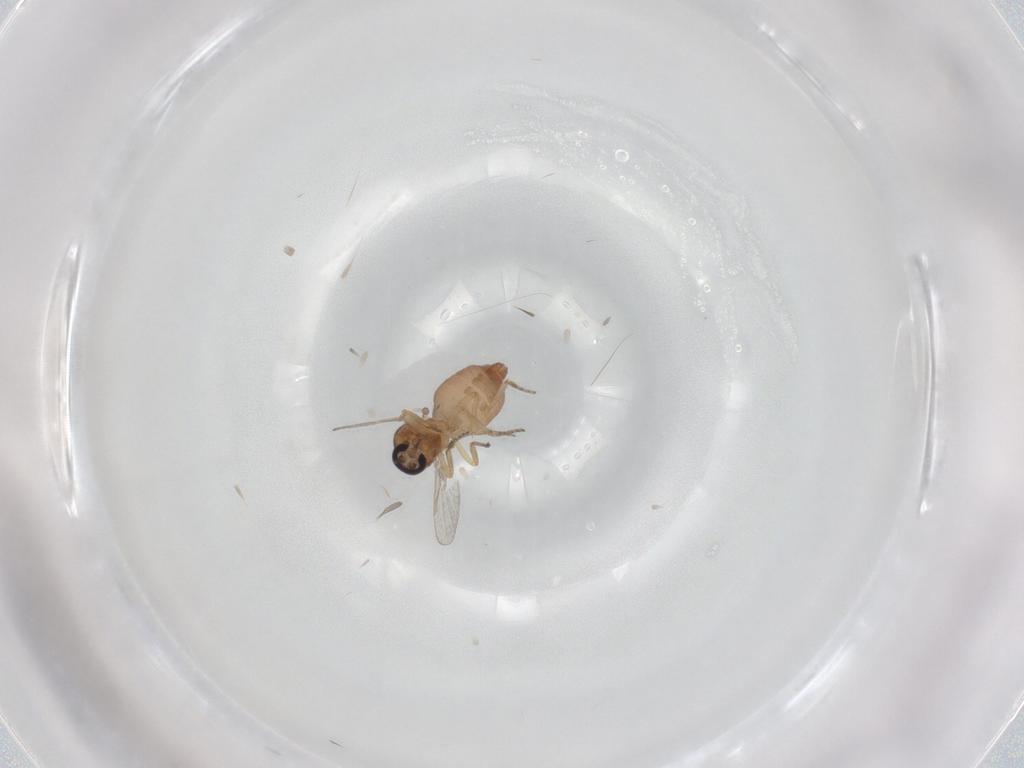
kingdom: Animalia
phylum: Arthropoda
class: Insecta
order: Diptera
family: Ceratopogonidae
